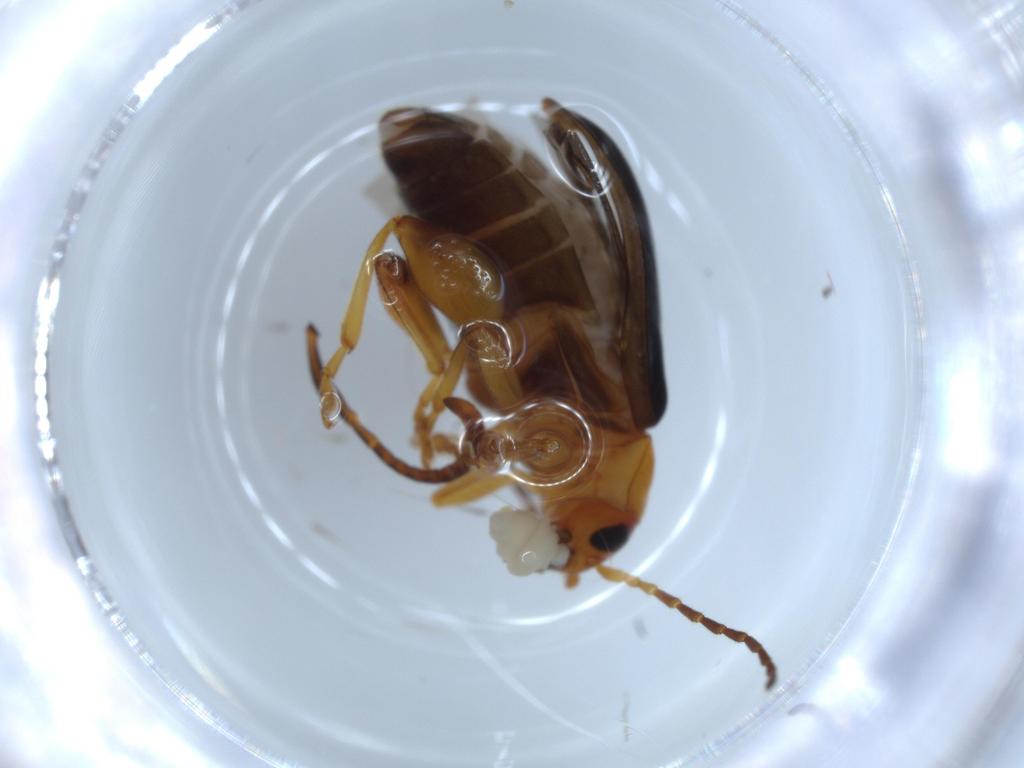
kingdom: Animalia
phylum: Arthropoda
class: Insecta
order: Coleoptera
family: Chrysomelidae
